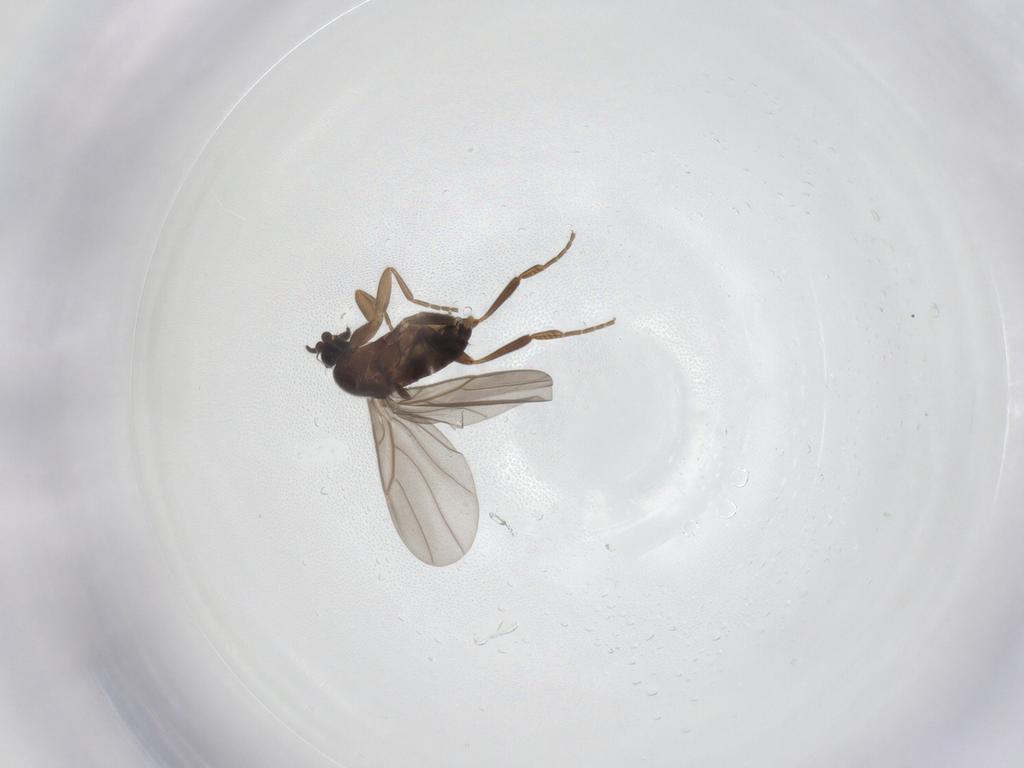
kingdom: Animalia
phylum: Arthropoda
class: Insecta
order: Diptera
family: Phoridae
